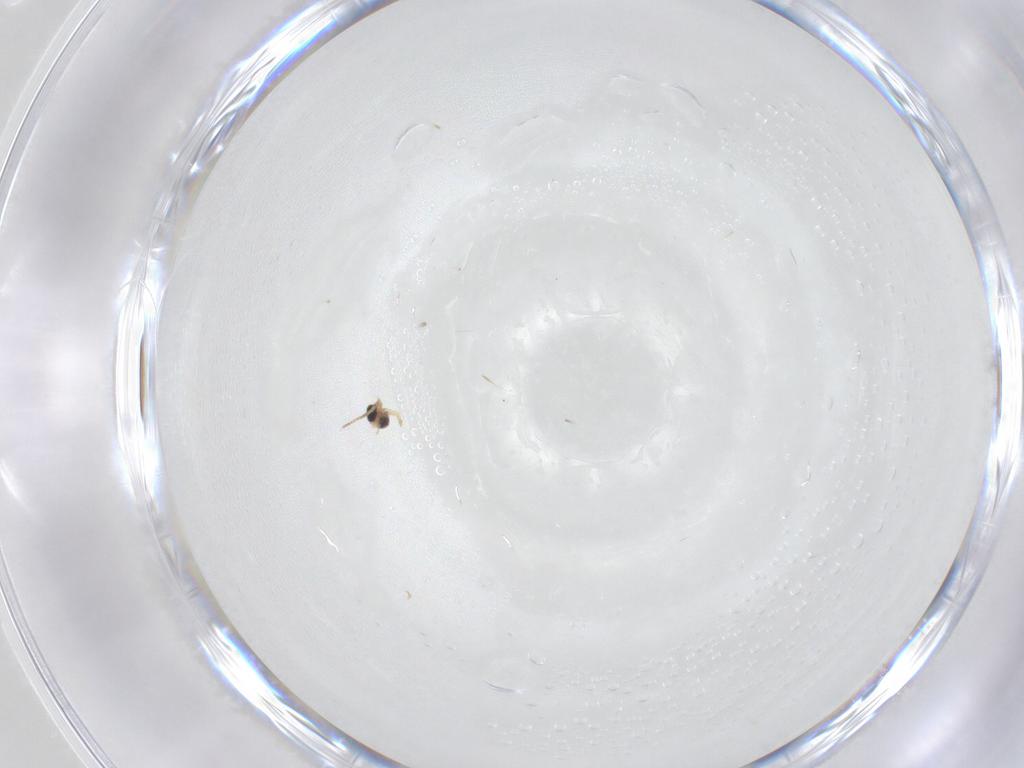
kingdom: Animalia
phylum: Arthropoda
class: Insecta
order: Lepidoptera
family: Crambidae
